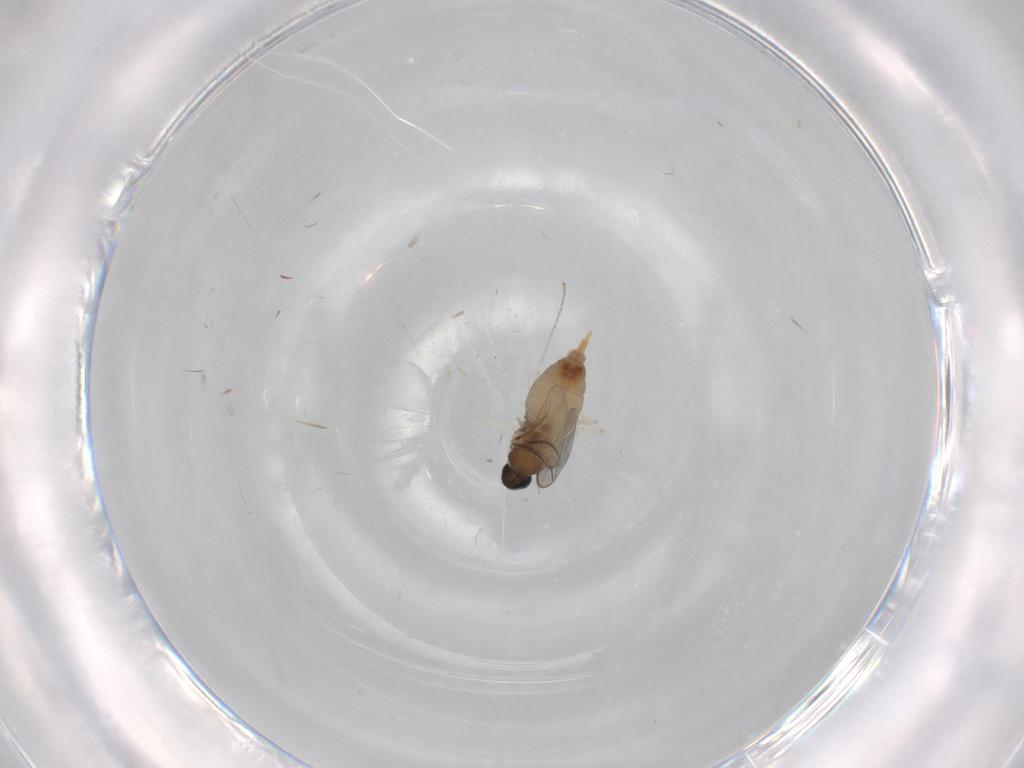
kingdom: Animalia
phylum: Arthropoda
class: Insecta
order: Diptera
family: Cecidomyiidae
